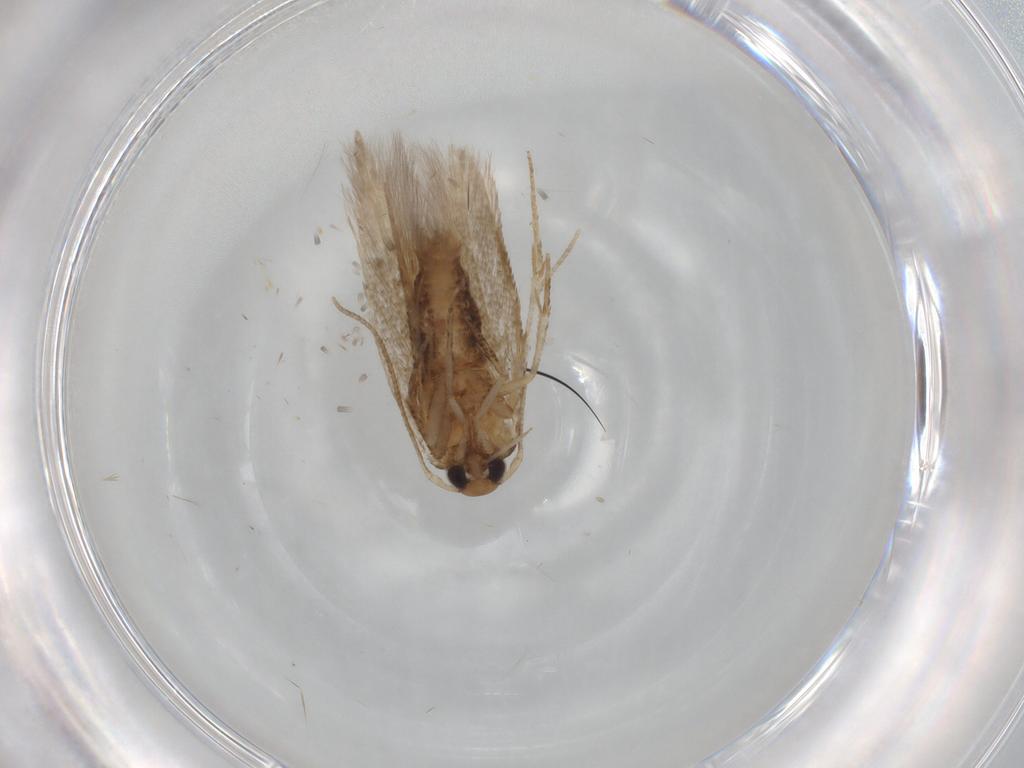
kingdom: Animalia
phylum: Arthropoda
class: Insecta
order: Lepidoptera
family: Cosmopterigidae
